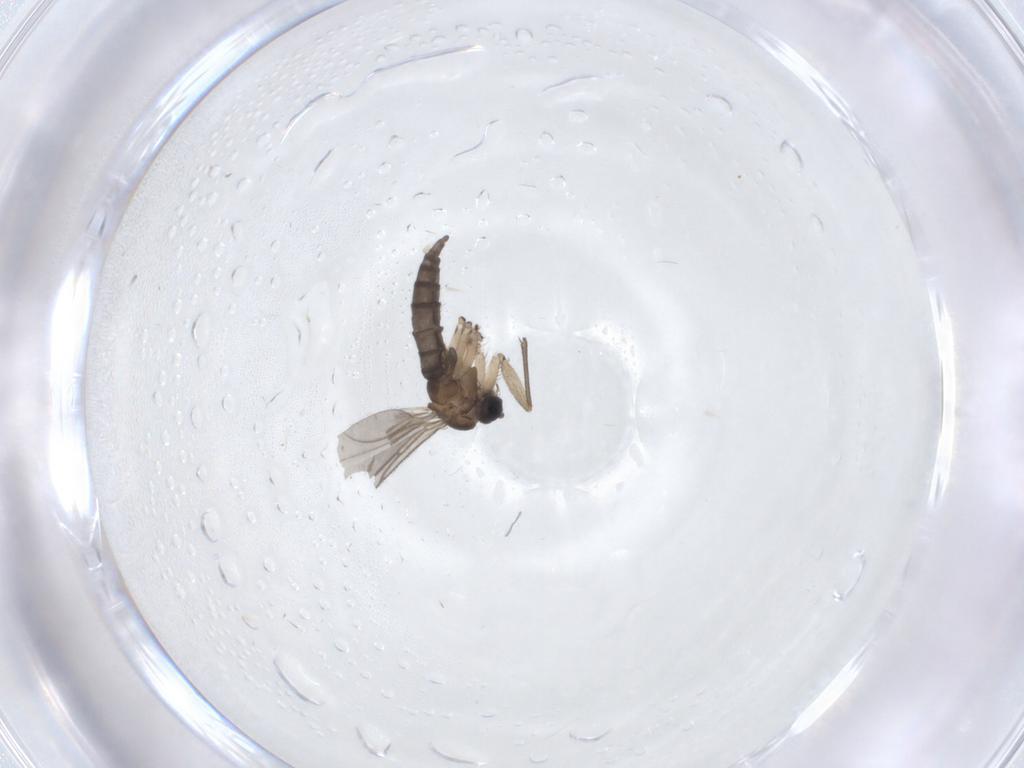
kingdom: Animalia
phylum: Arthropoda
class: Insecta
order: Diptera
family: Sciaridae
